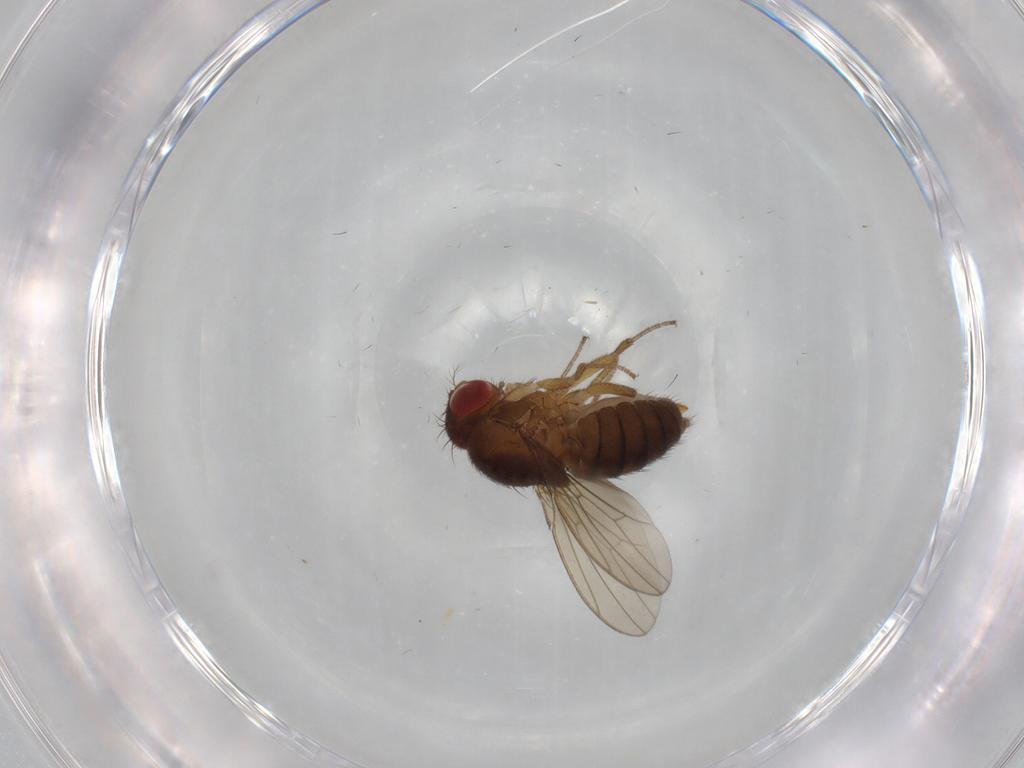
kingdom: Animalia
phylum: Arthropoda
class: Insecta
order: Diptera
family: Drosophilidae
